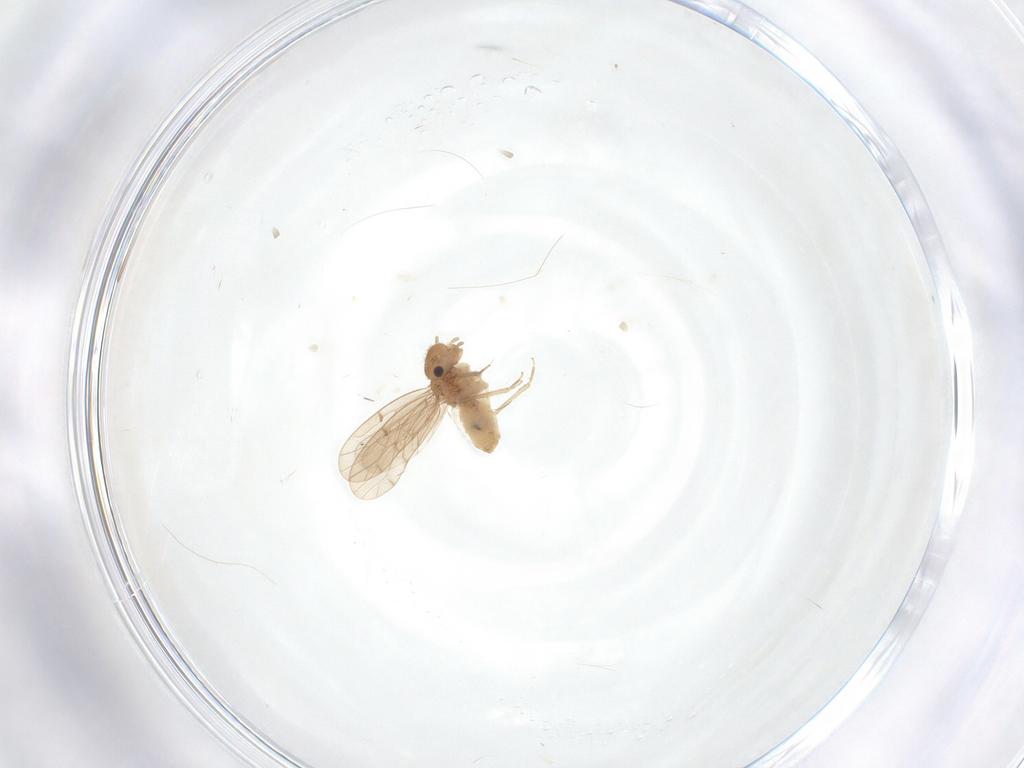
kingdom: Animalia
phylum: Arthropoda
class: Insecta
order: Psocodea
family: Ectopsocidae
